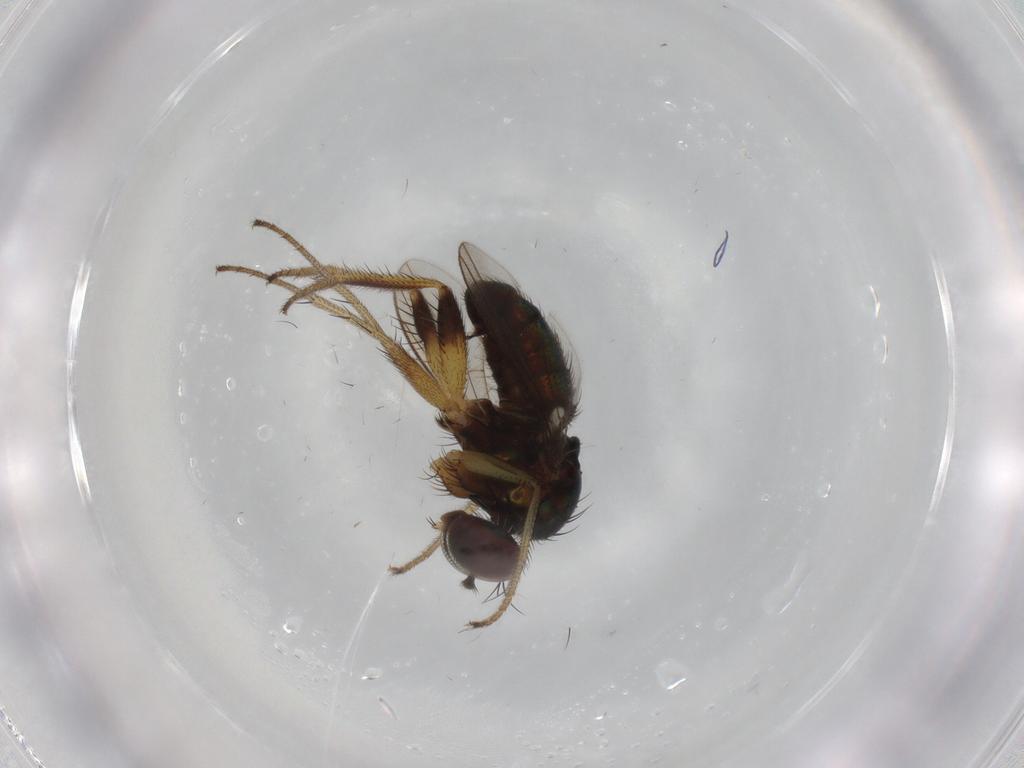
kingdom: Animalia
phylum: Arthropoda
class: Insecta
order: Diptera
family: Dolichopodidae
